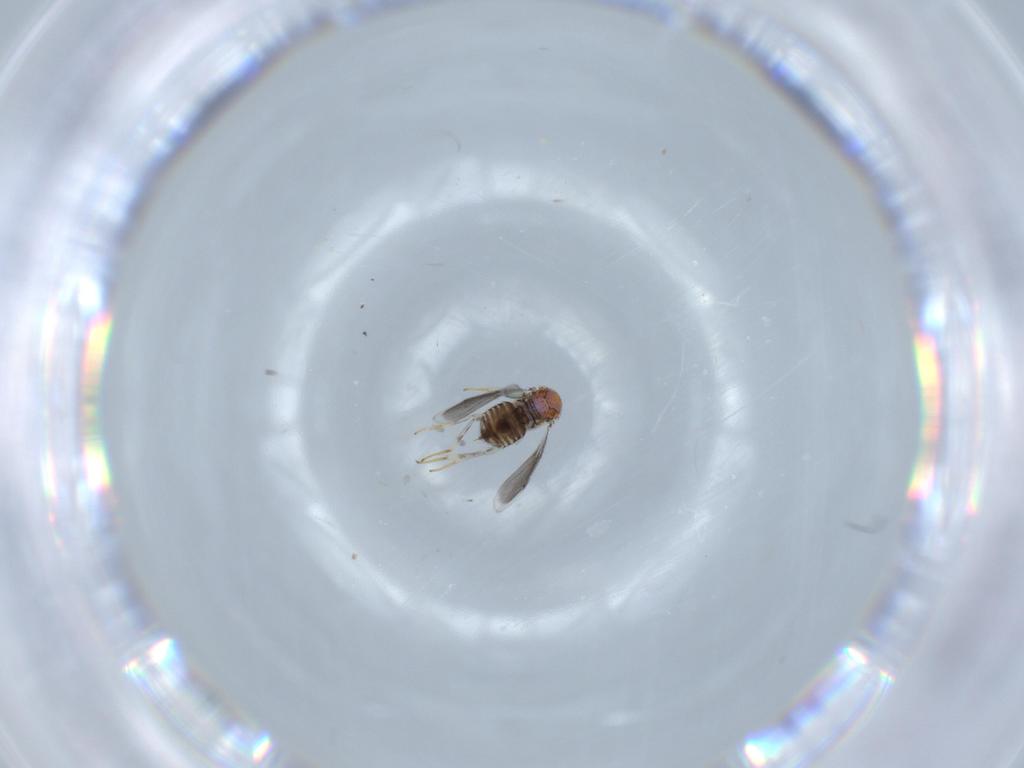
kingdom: Animalia
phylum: Arthropoda
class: Insecta
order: Hymenoptera
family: Aphelinidae
